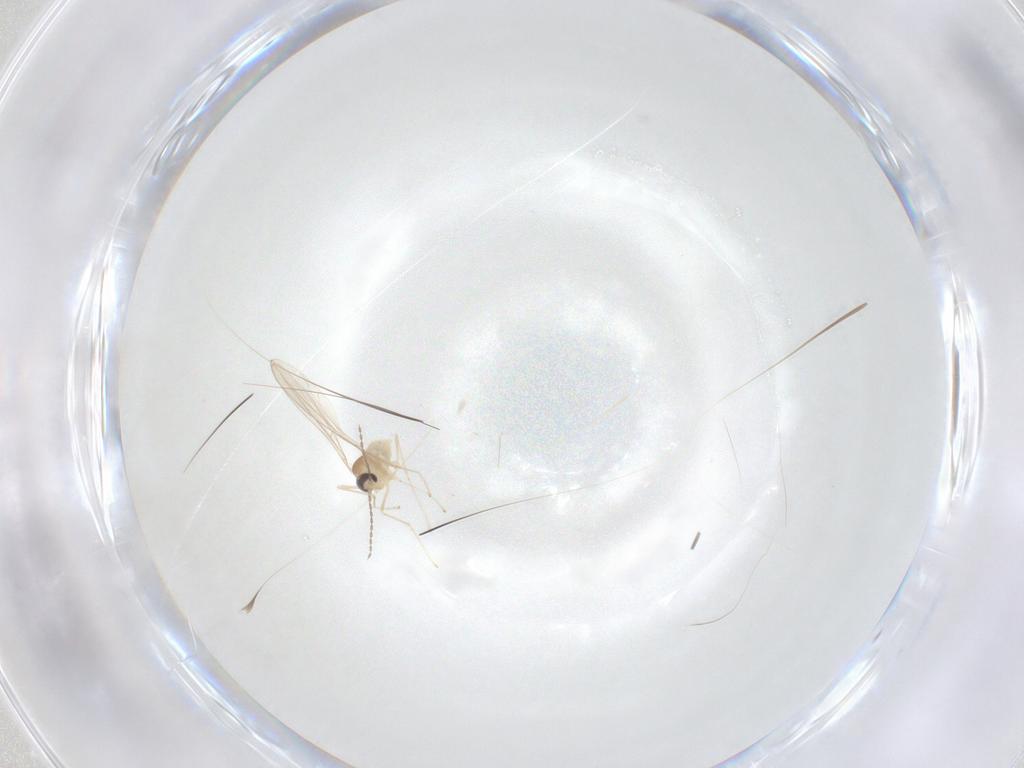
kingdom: Animalia
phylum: Arthropoda
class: Insecta
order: Diptera
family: Cecidomyiidae
